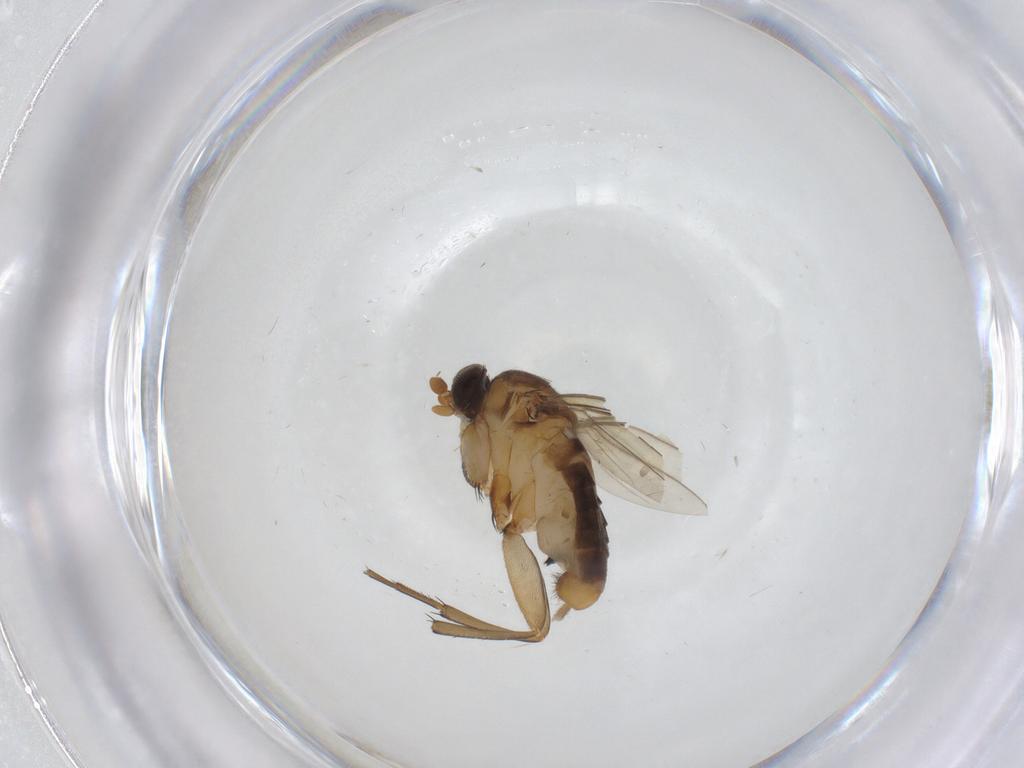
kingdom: Animalia
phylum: Arthropoda
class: Insecta
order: Diptera
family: Phoridae
